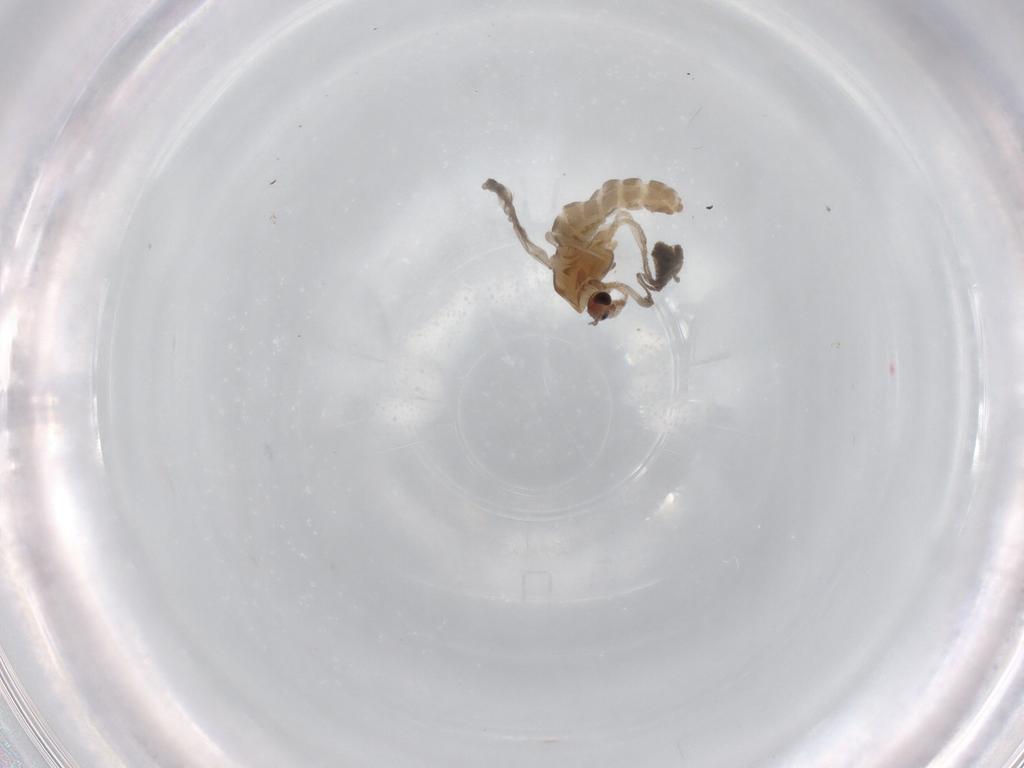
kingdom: Animalia
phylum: Arthropoda
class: Insecta
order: Diptera
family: Chironomidae
